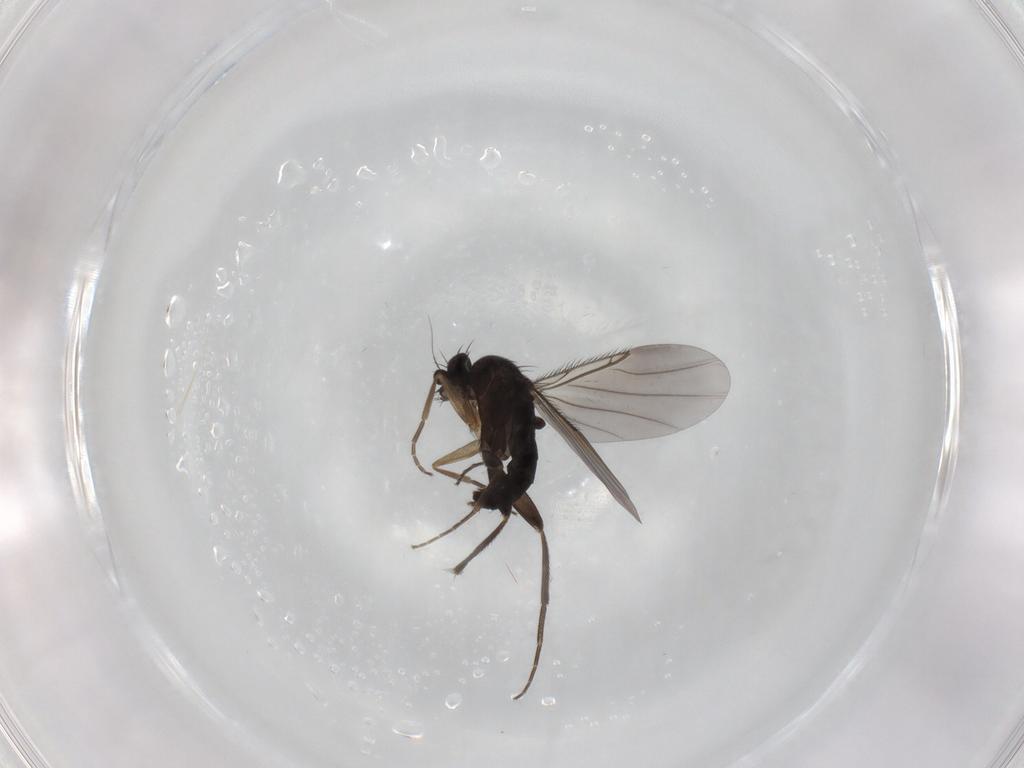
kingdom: Animalia
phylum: Arthropoda
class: Insecta
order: Diptera
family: Phoridae
